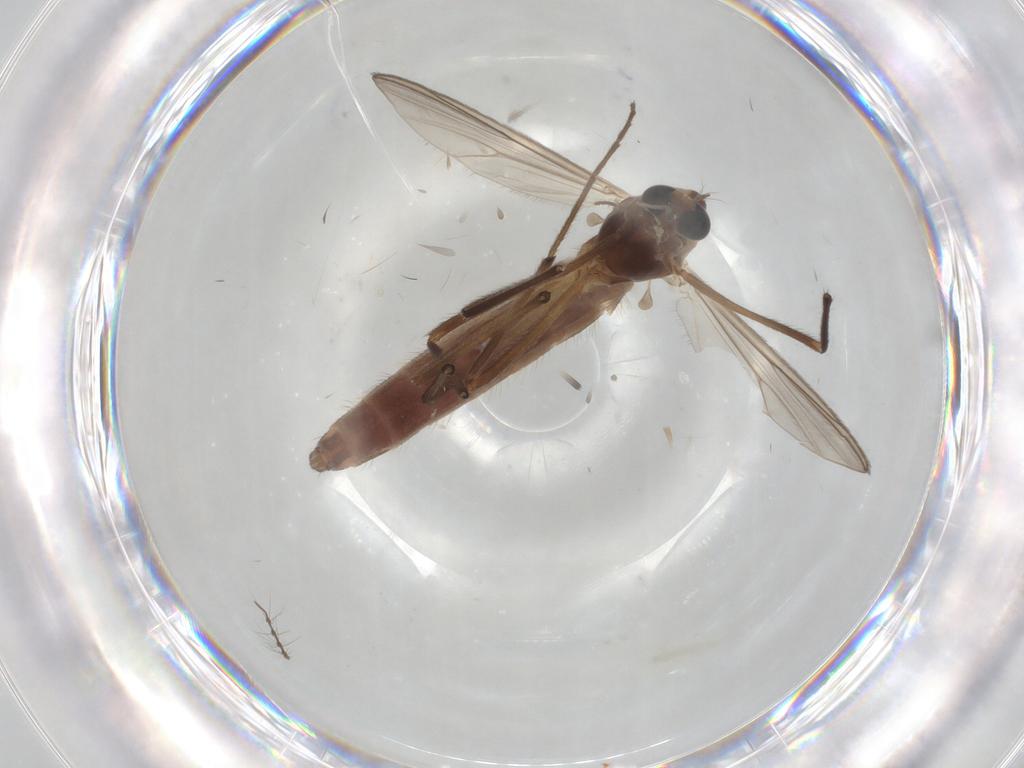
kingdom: Animalia
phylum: Arthropoda
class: Insecta
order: Diptera
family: Chironomidae
